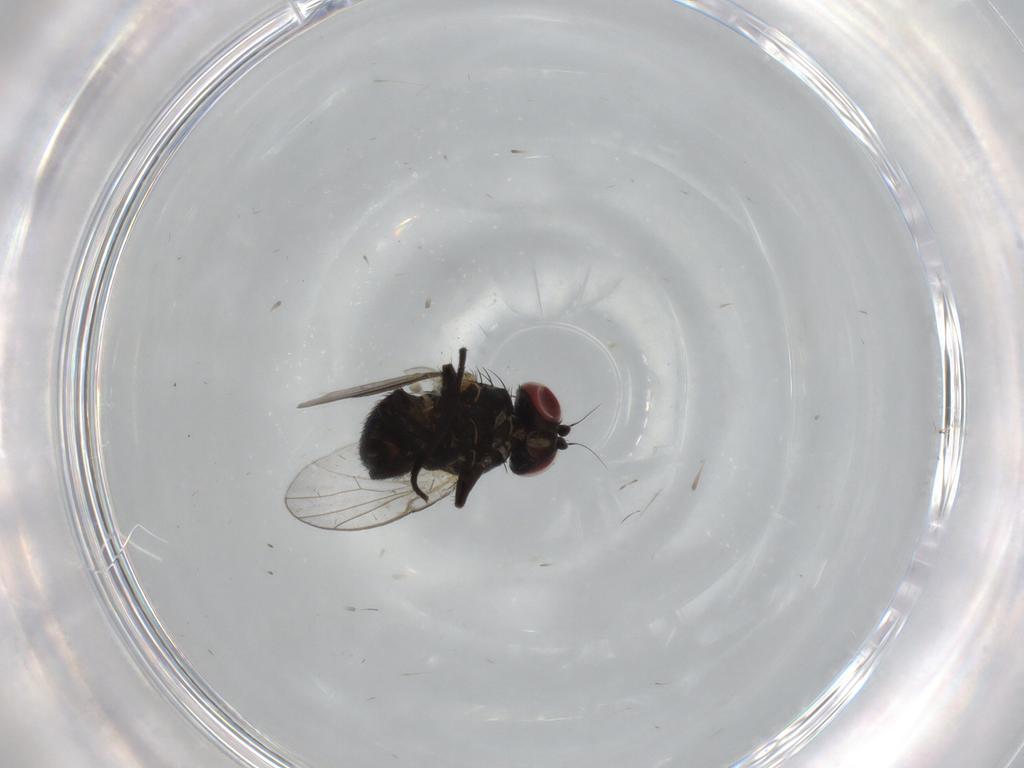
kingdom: Animalia
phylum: Arthropoda
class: Insecta
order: Diptera
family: Agromyzidae
